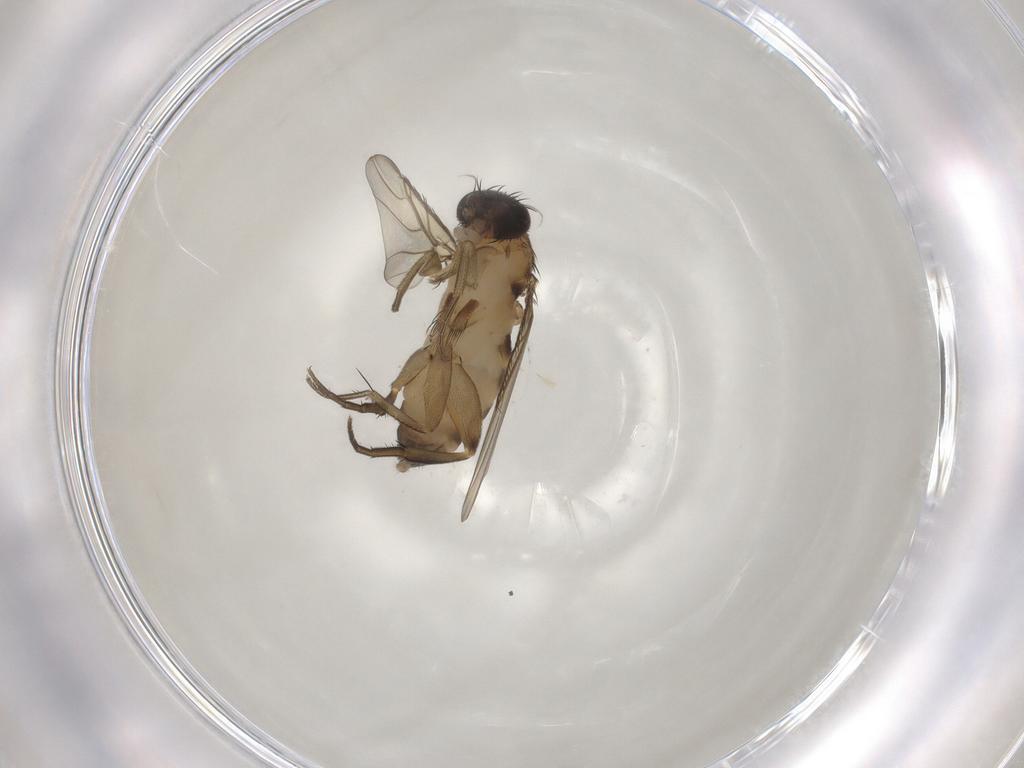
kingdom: Animalia
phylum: Arthropoda
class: Insecta
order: Diptera
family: Phoridae
